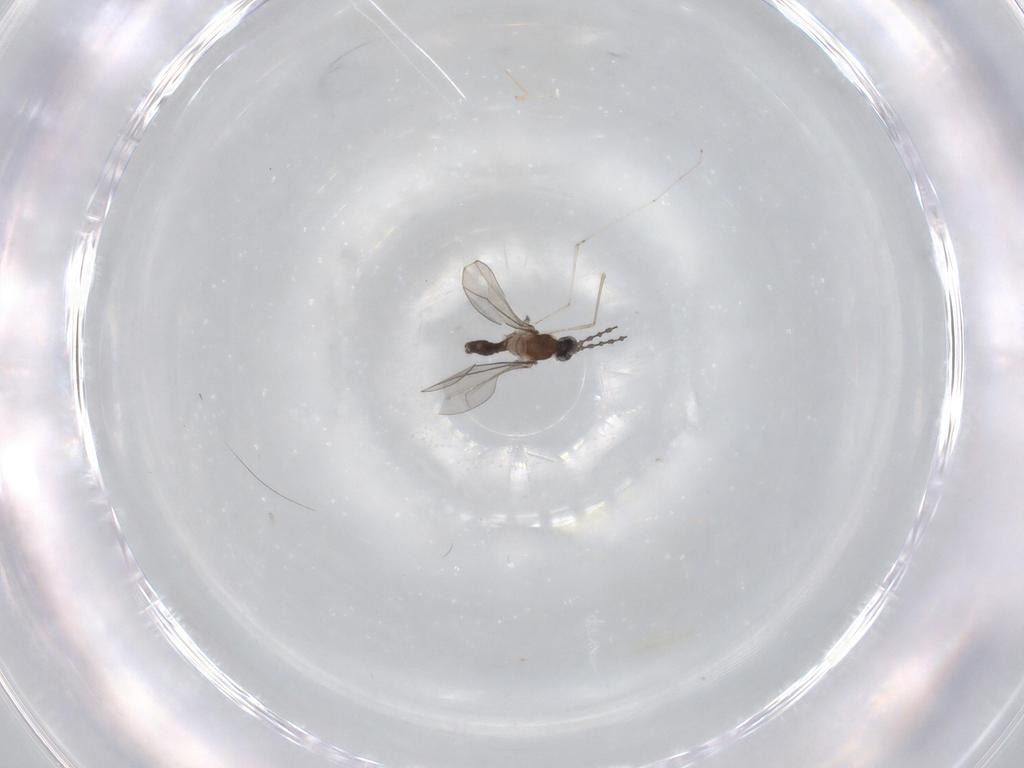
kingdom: Animalia
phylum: Arthropoda
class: Insecta
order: Diptera
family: Cecidomyiidae
